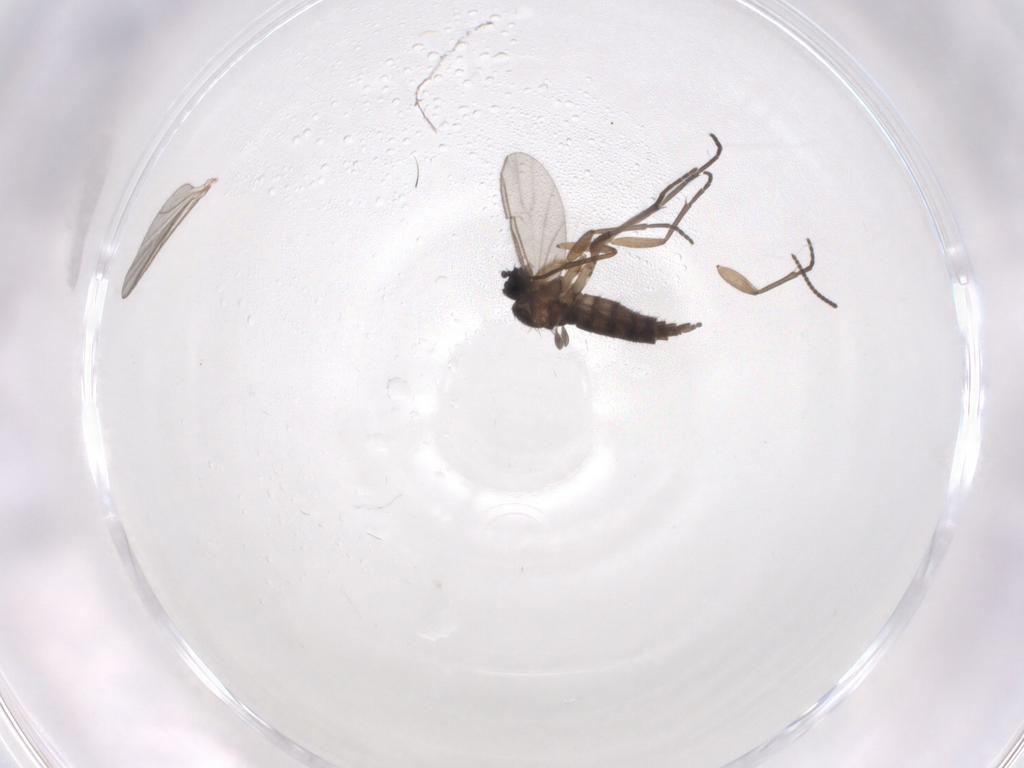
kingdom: Animalia
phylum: Arthropoda
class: Insecta
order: Diptera
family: Sciaridae
